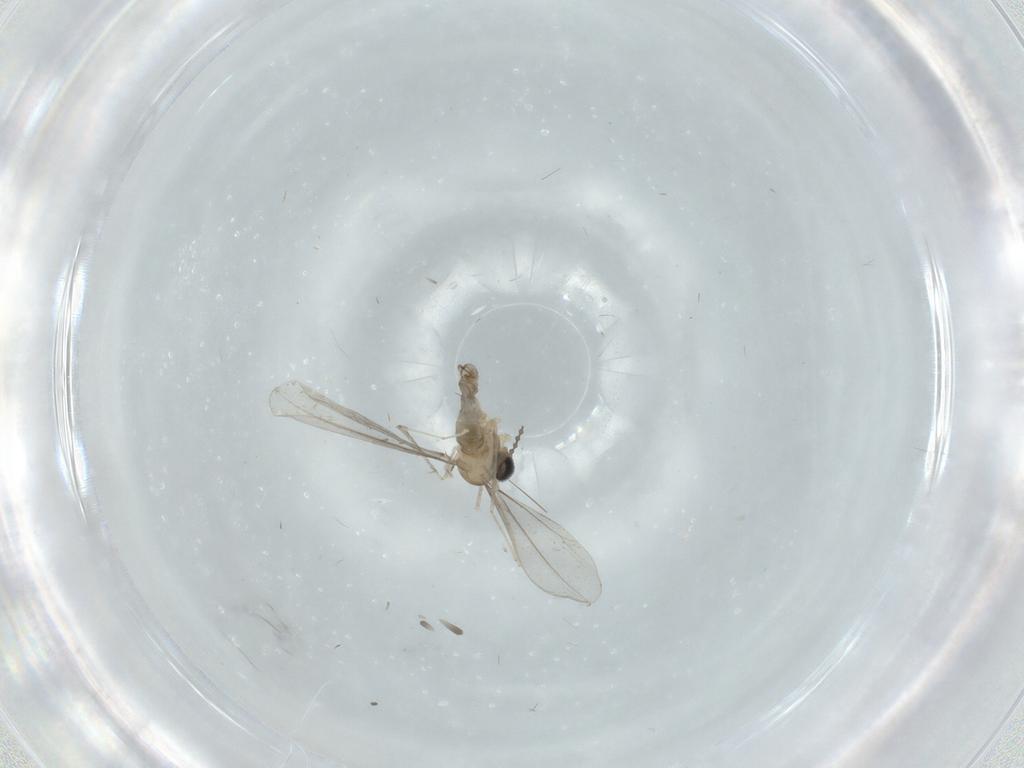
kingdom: Animalia
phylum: Arthropoda
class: Insecta
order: Diptera
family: Cecidomyiidae
